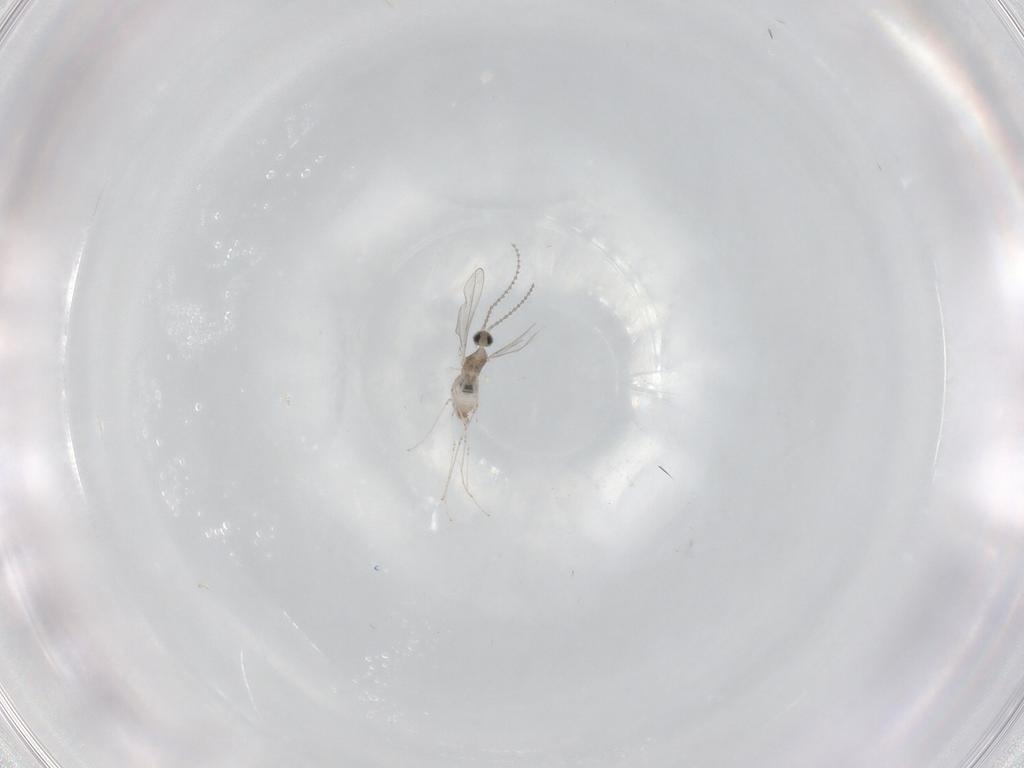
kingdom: Animalia
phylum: Arthropoda
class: Insecta
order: Diptera
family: Cecidomyiidae
